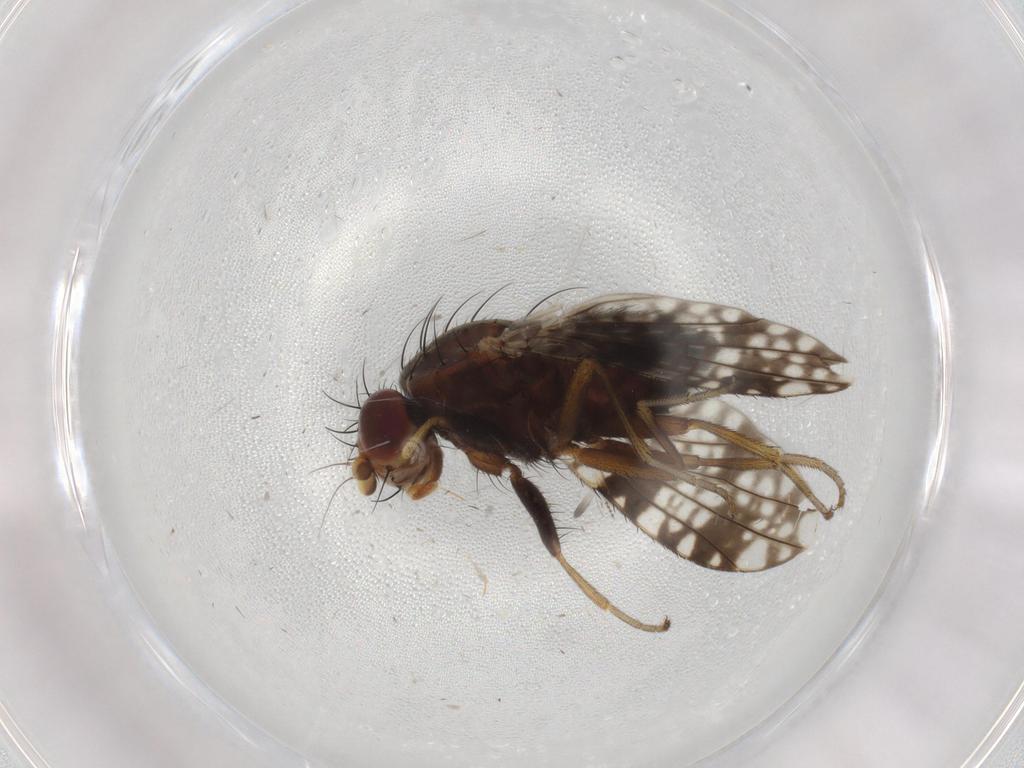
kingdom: Animalia
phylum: Arthropoda
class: Insecta
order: Diptera
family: Tephritidae
